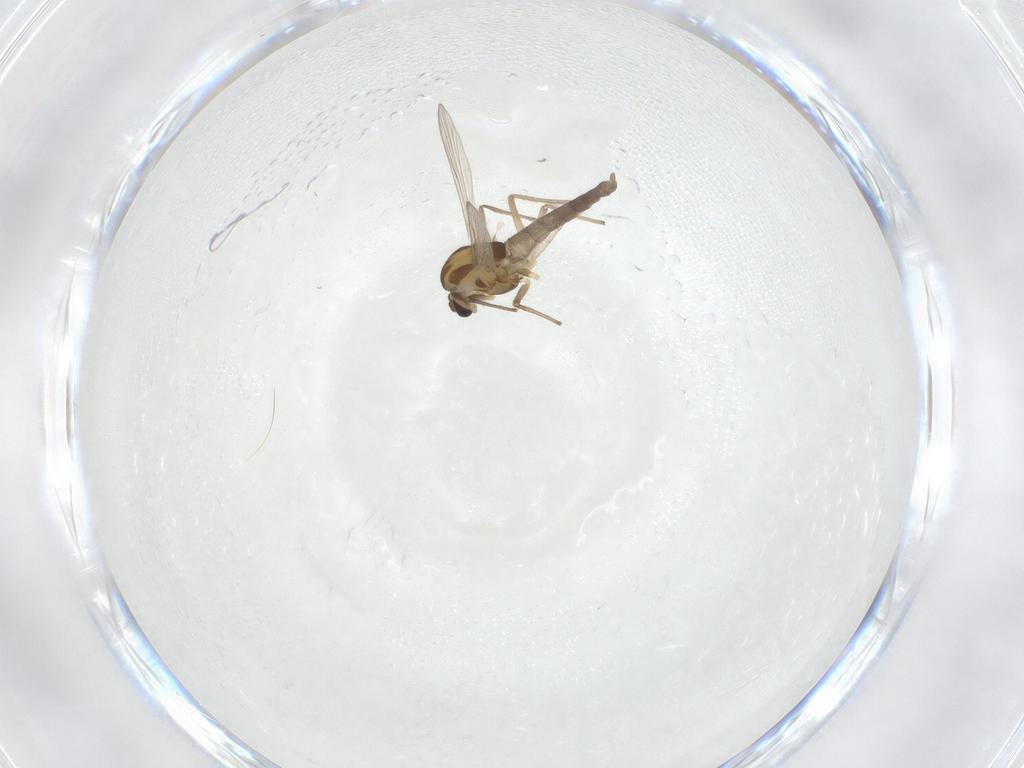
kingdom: Animalia
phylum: Arthropoda
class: Insecta
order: Diptera
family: Chironomidae
